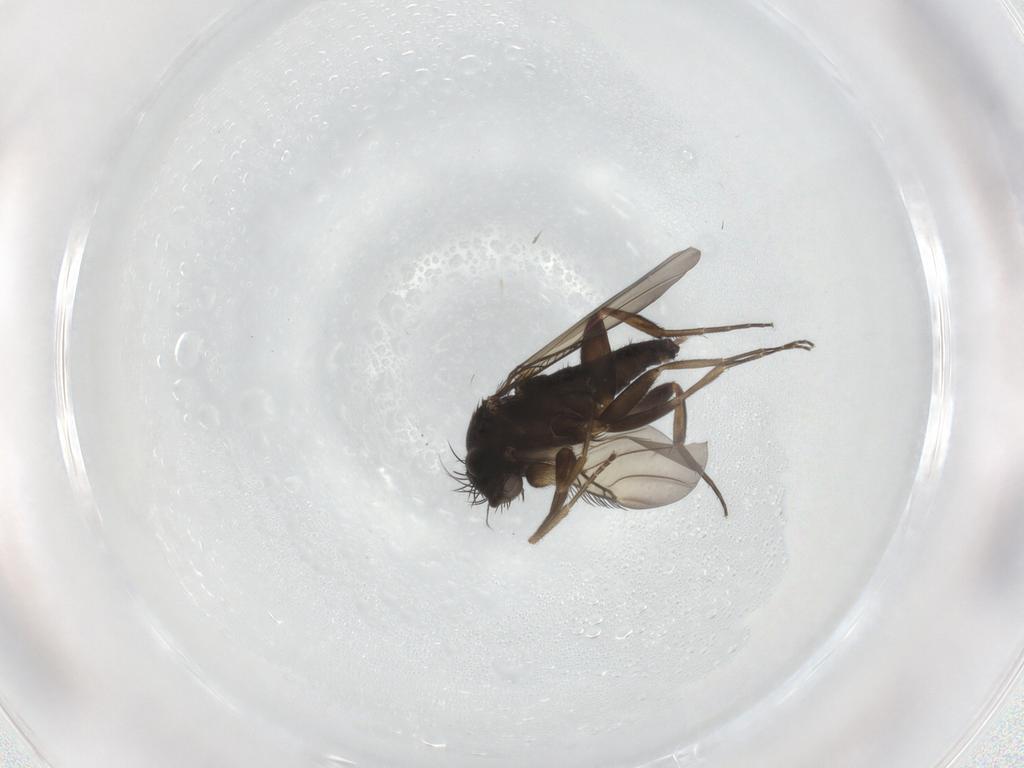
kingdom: Animalia
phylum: Arthropoda
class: Insecta
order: Diptera
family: Phoridae
